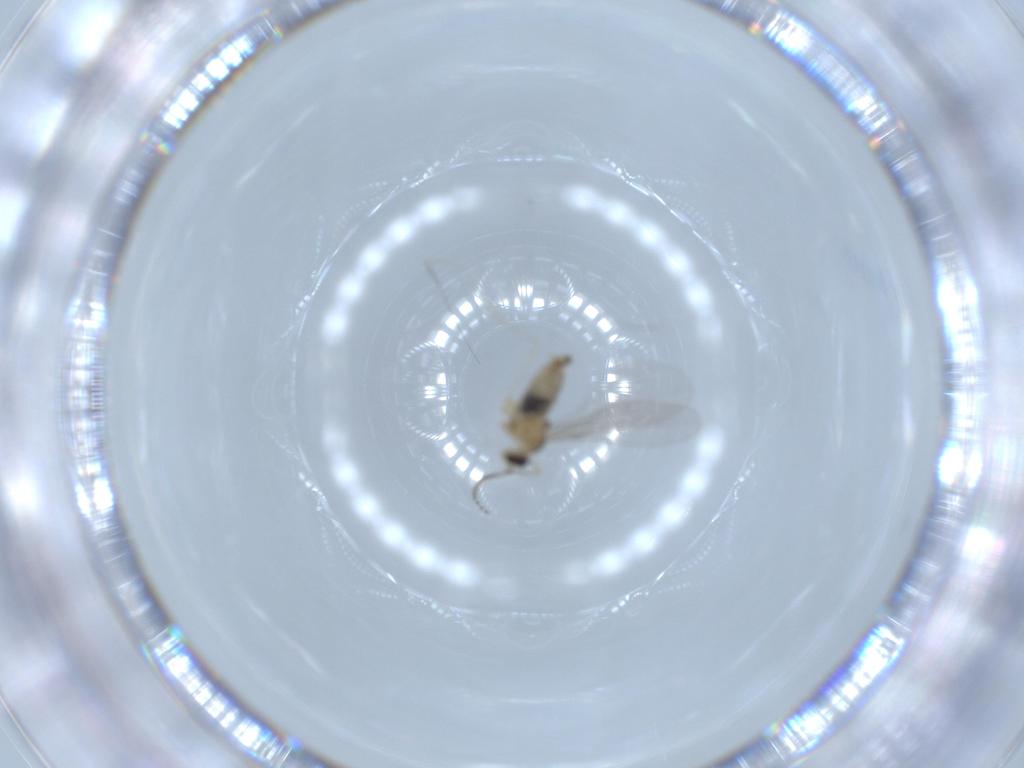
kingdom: Animalia
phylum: Arthropoda
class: Insecta
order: Diptera
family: Cecidomyiidae
